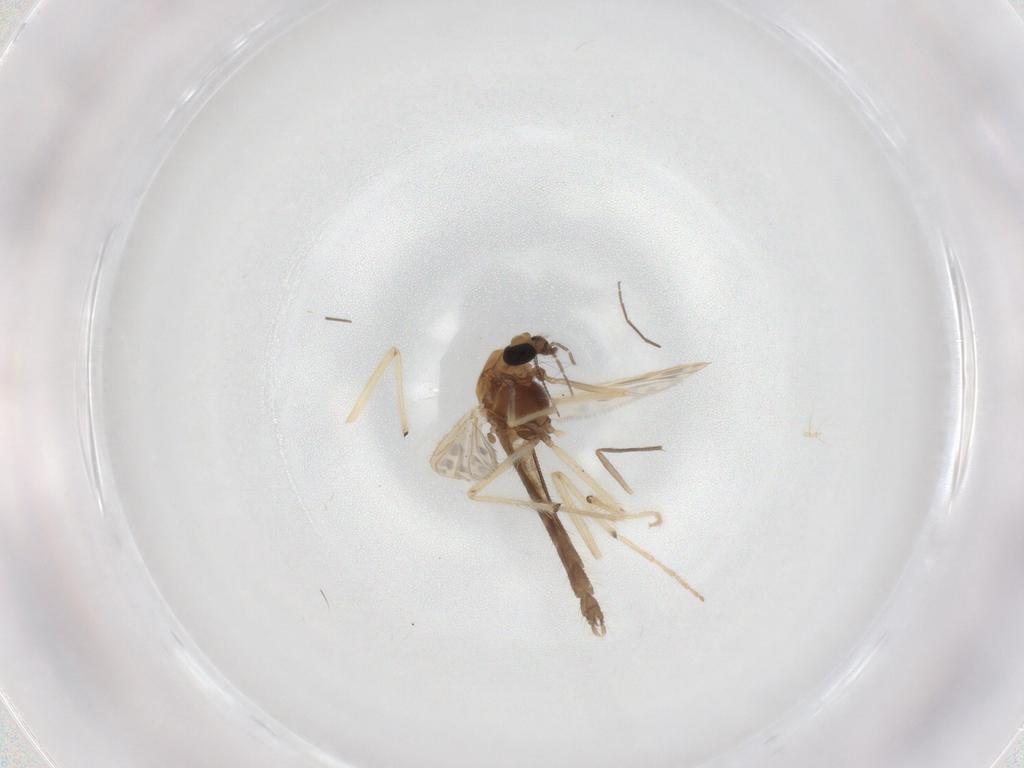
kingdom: Animalia
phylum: Arthropoda
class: Insecta
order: Diptera
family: Chironomidae
